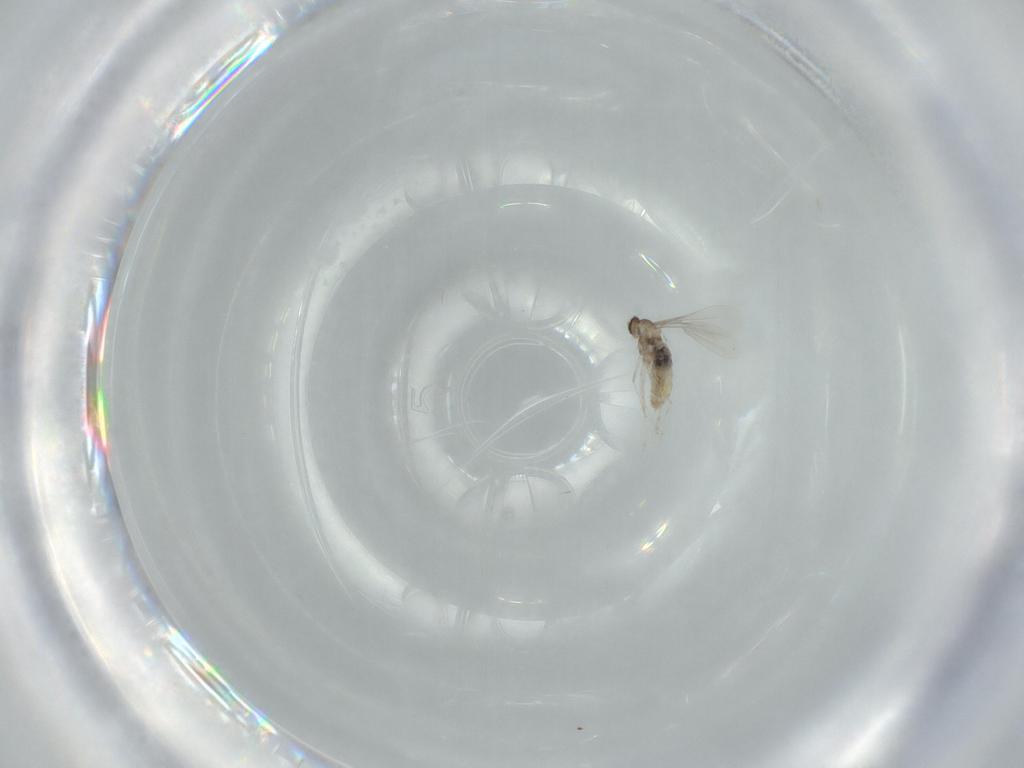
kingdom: Animalia
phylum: Arthropoda
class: Insecta
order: Diptera
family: Cecidomyiidae
